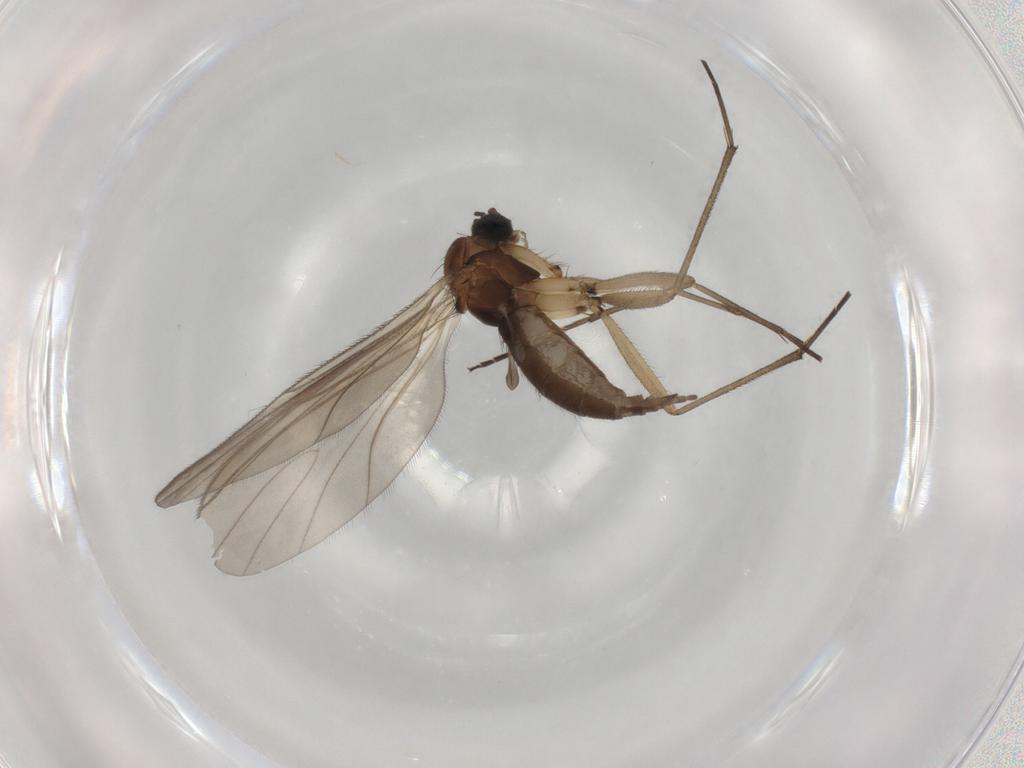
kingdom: Animalia
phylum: Arthropoda
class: Insecta
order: Diptera
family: Sciaridae
